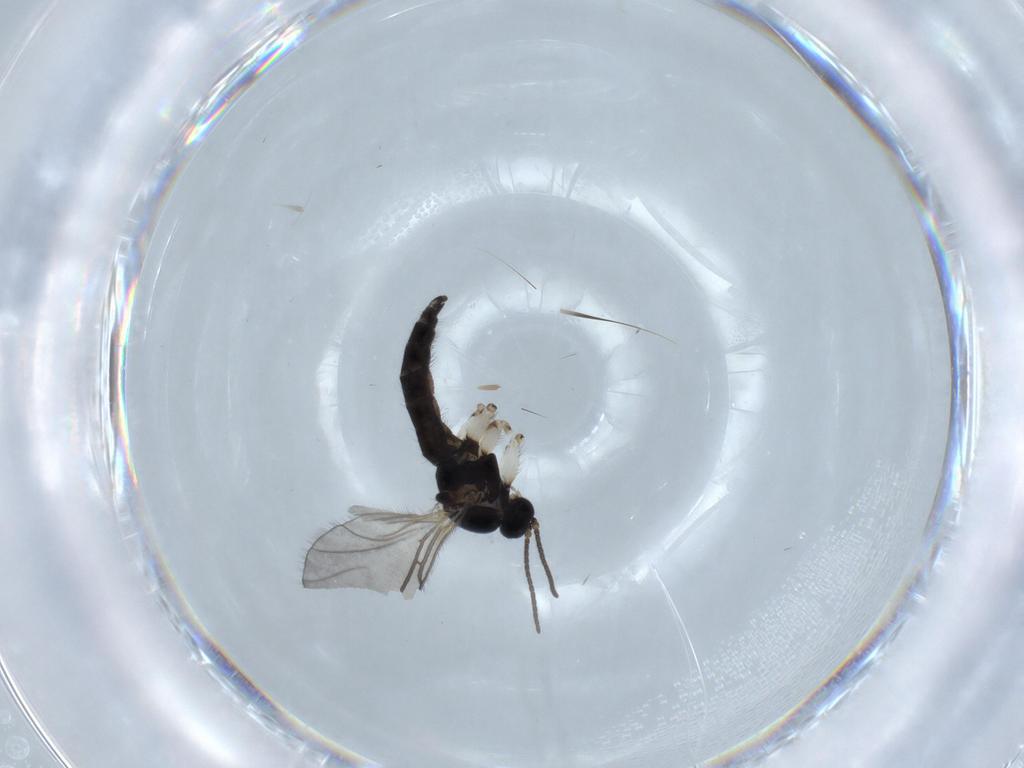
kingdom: Animalia
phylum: Arthropoda
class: Insecta
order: Diptera
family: Sciaridae
